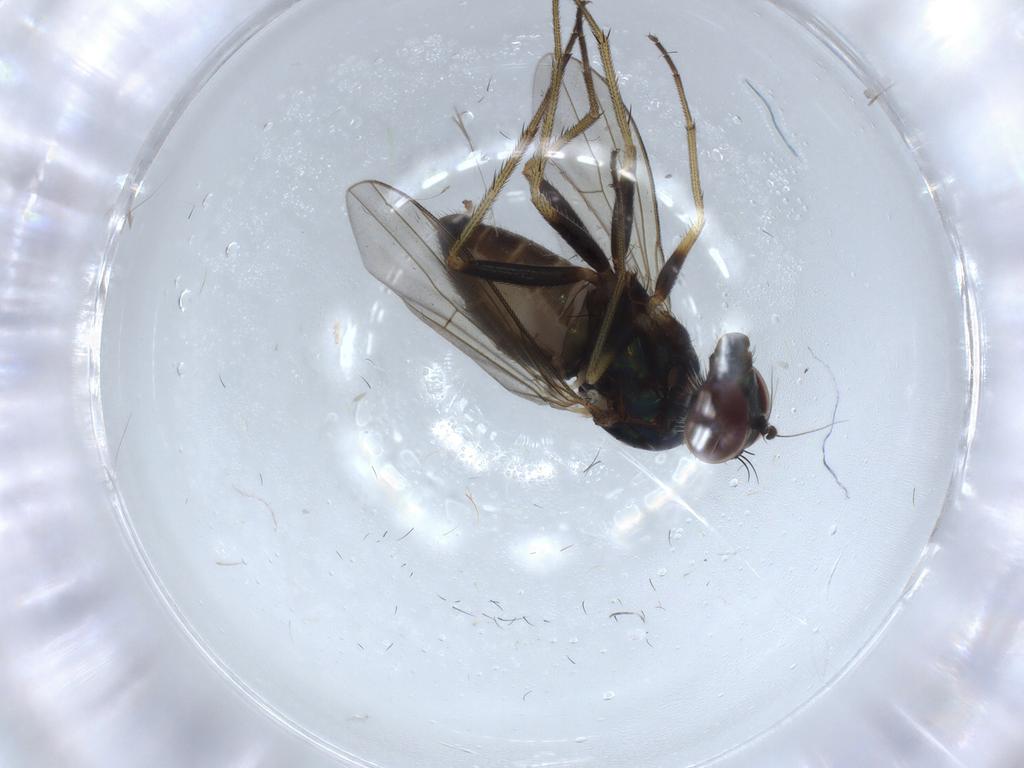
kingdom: Animalia
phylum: Arthropoda
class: Insecta
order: Diptera
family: Dolichopodidae
